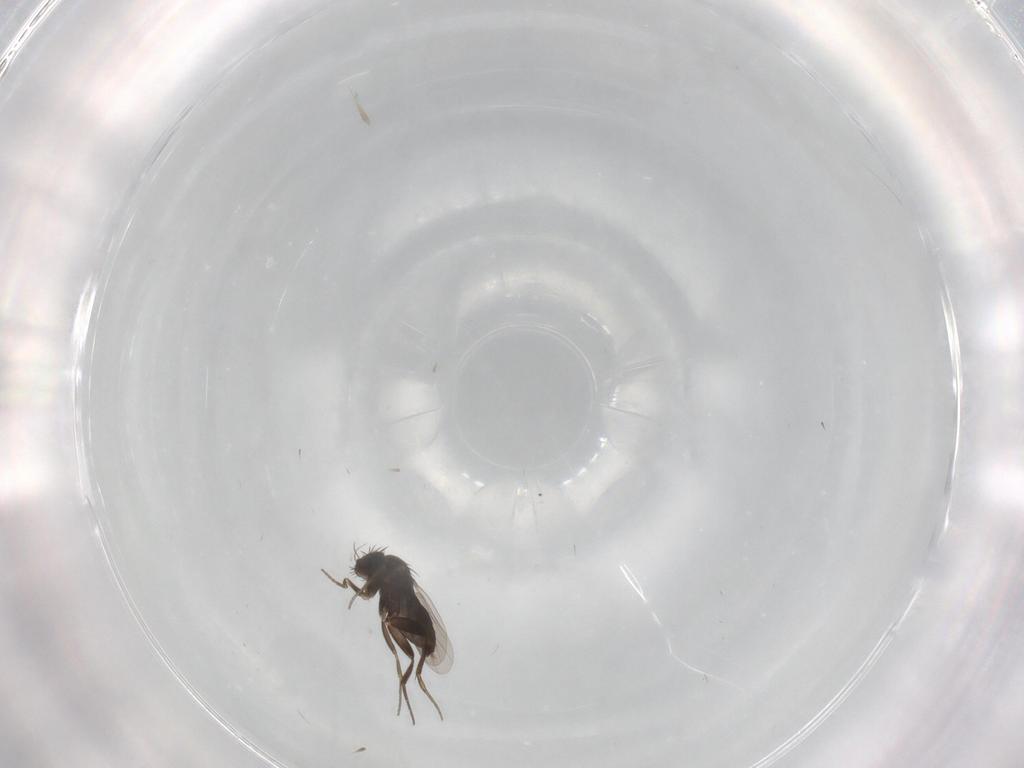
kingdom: Animalia
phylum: Arthropoda
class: Insecta
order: Diptera
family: Phoridae
